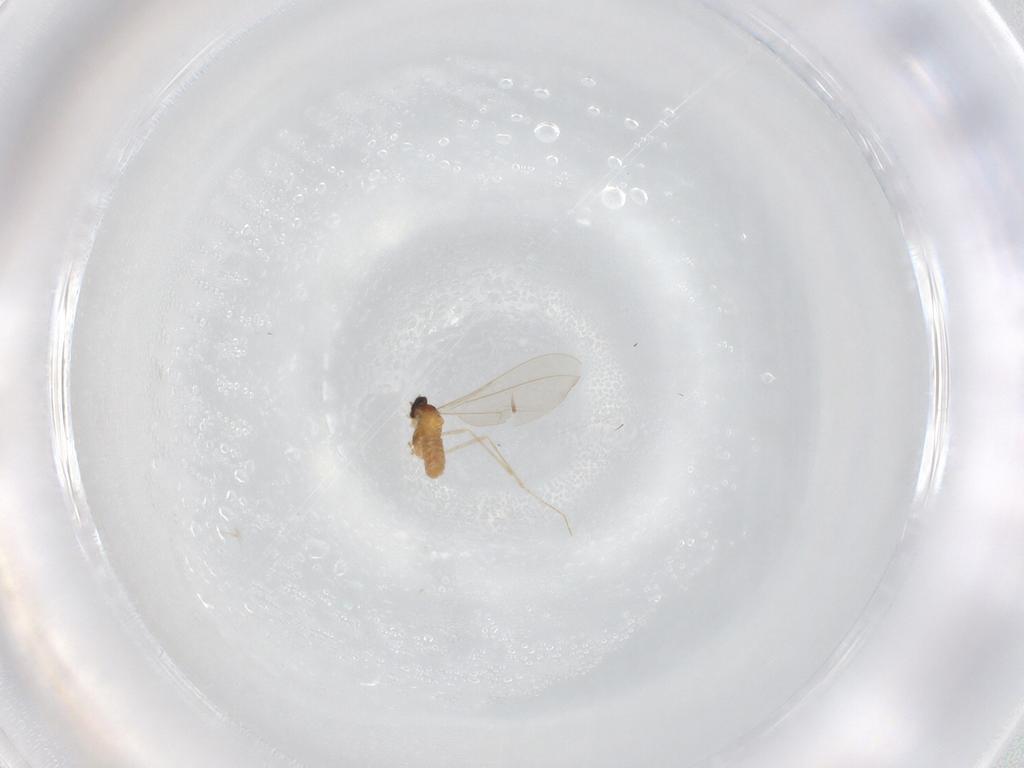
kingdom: Animalia
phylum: Arthropoda
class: Insecta
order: Diptera
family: Cecidomyiidae
